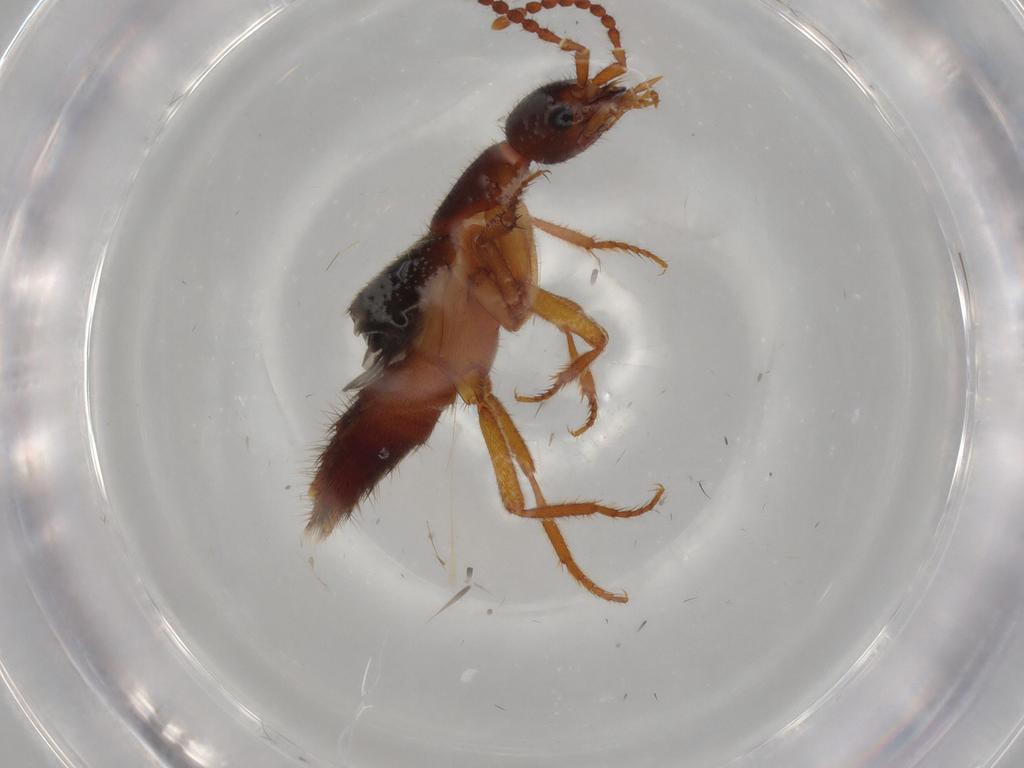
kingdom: Animalia
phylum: Arthropoda
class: Insecta
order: Coleoptera
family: Staphylinidae
